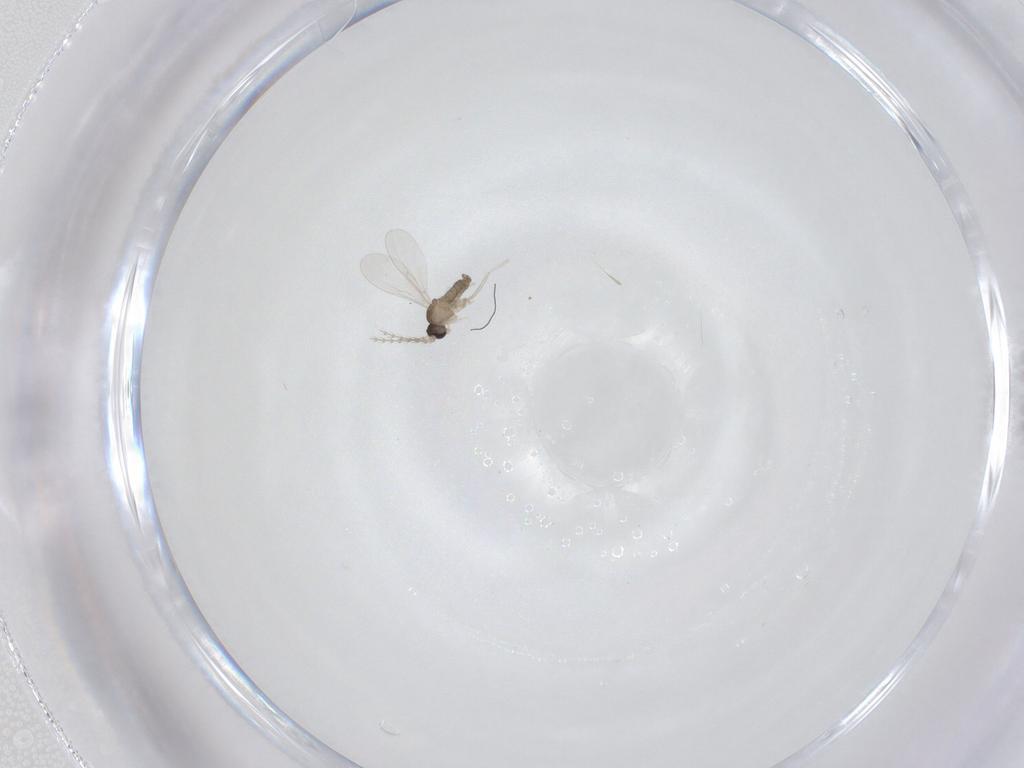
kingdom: Animalia
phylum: Arthropoda
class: Insecta
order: Diptera
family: Cecidomyiidae
